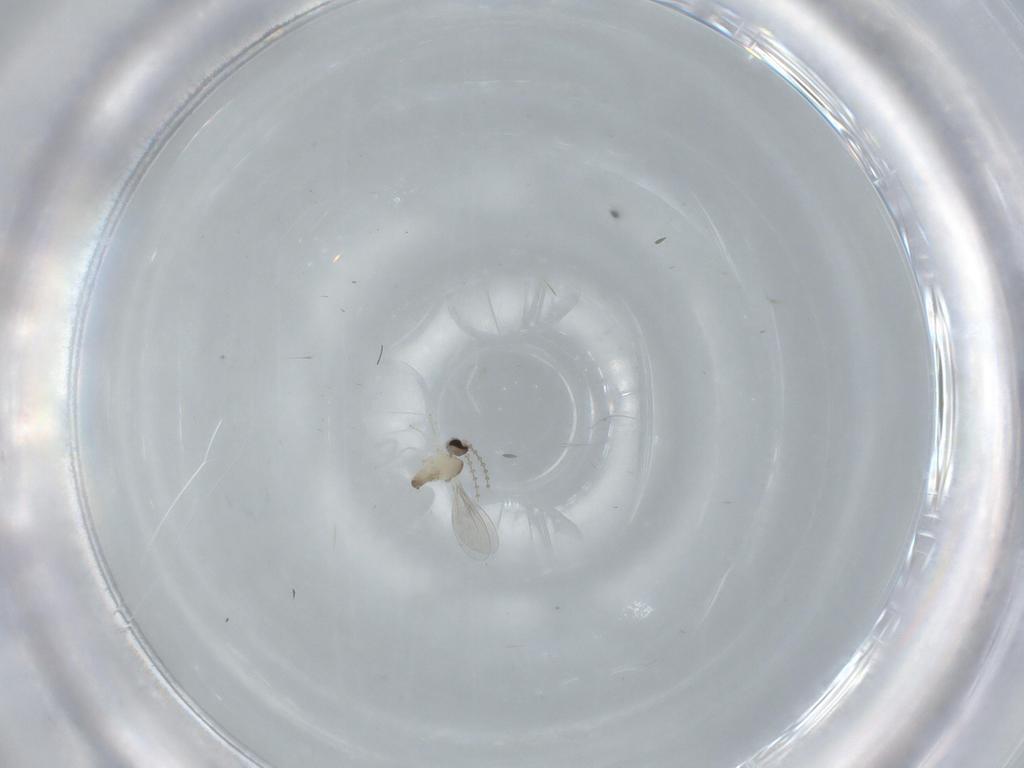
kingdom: Animalia
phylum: Arthropoda
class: Insecta
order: Diptera
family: Cecidomyiidae
